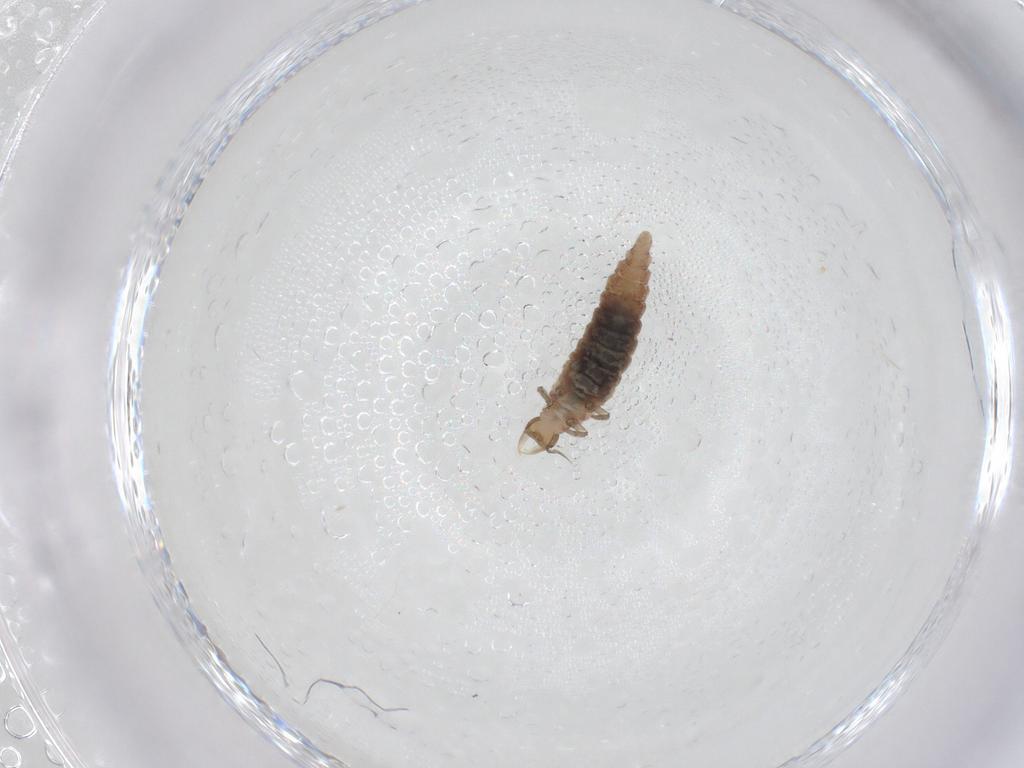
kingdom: Animalia
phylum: Arthropoda
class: Insecta
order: Neuroptera
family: Hemerobiidae
